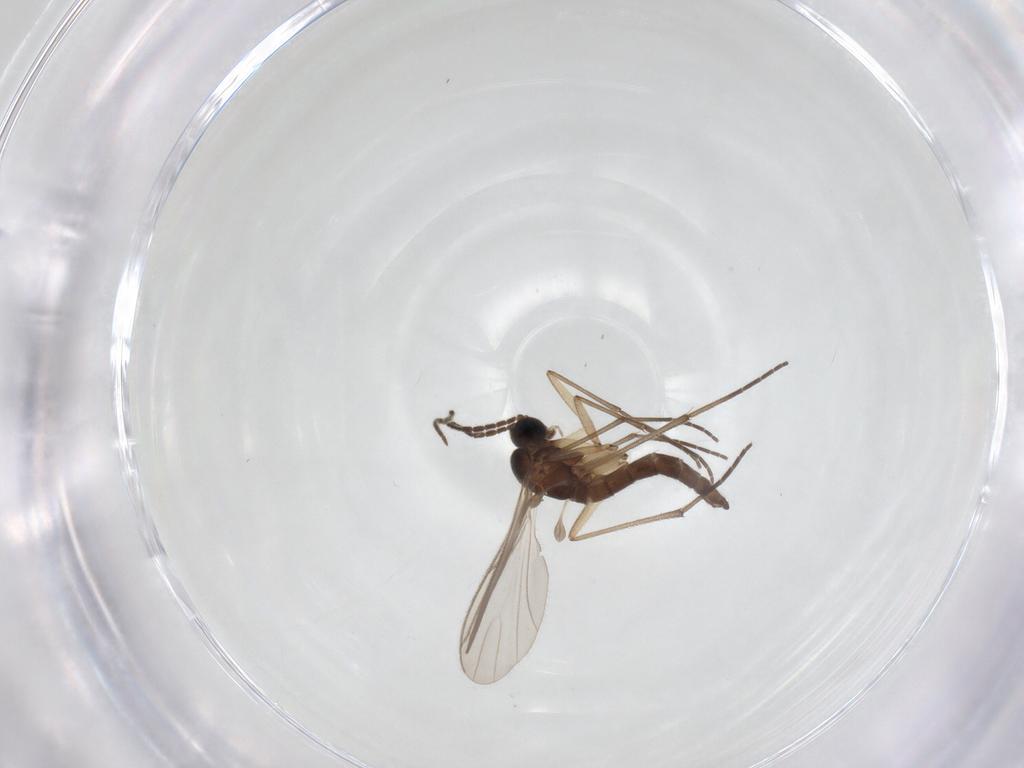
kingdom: Animalia
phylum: Arthropoda
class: Insecta
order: Diptera
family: Sciaridae
